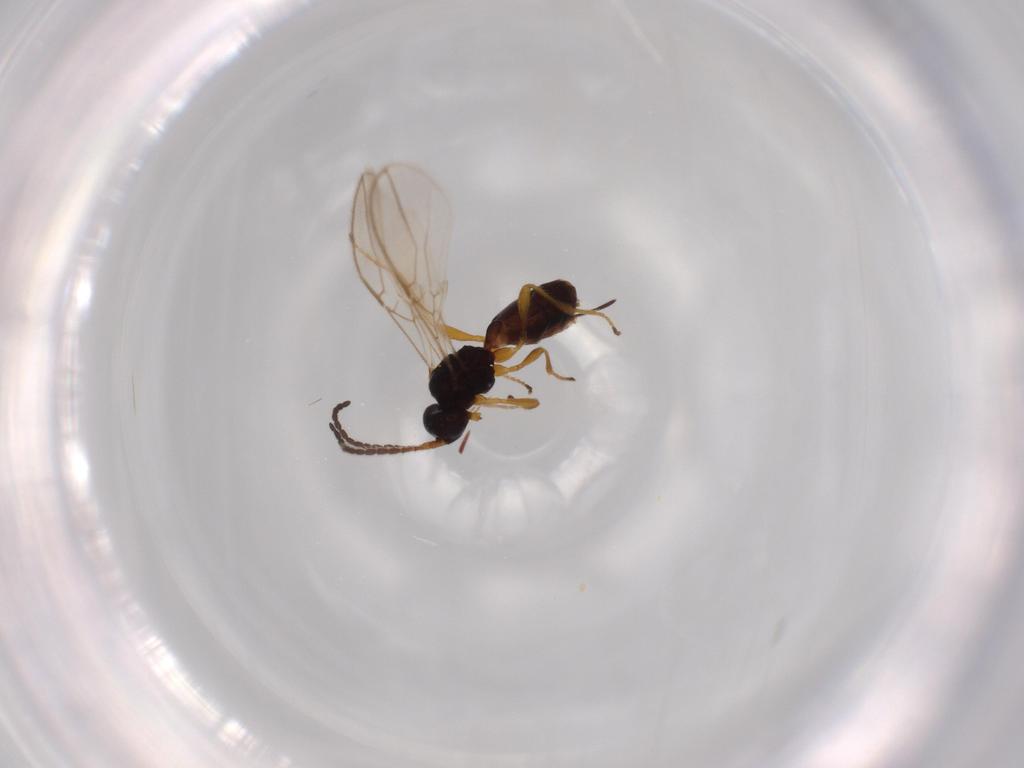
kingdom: Animalia
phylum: Arthropoda
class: Insecta
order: Hymenoptera
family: Braconidae
